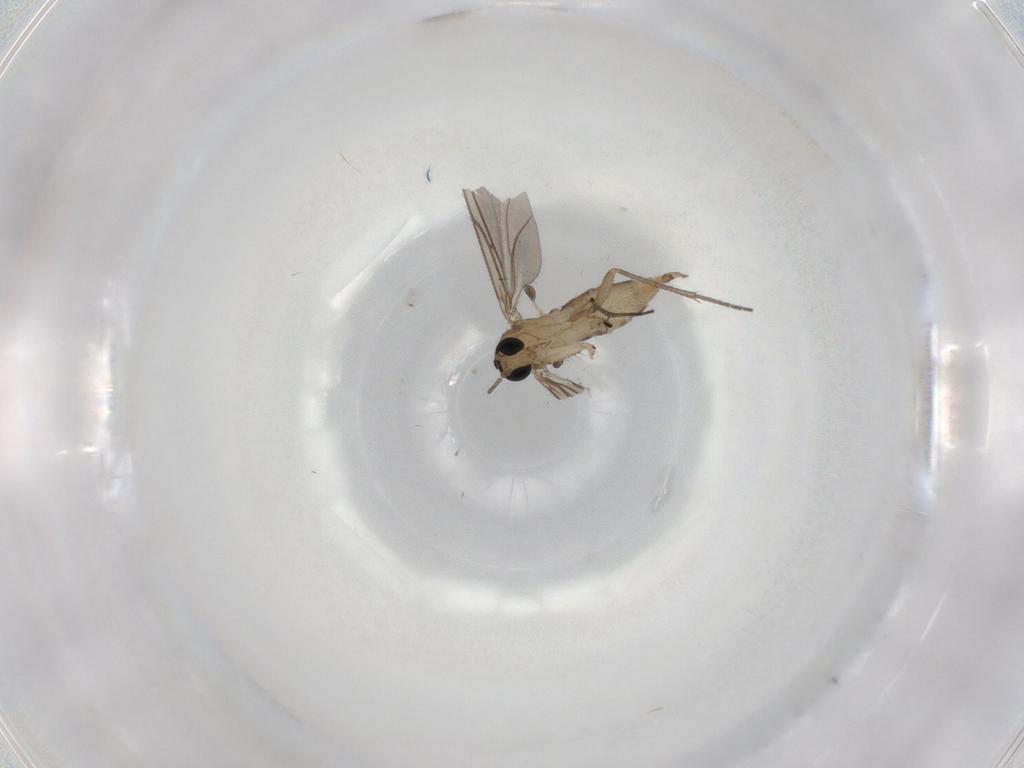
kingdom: Animalia
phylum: Arthropoda
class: Insecta
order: Diptera
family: Sciaridae
